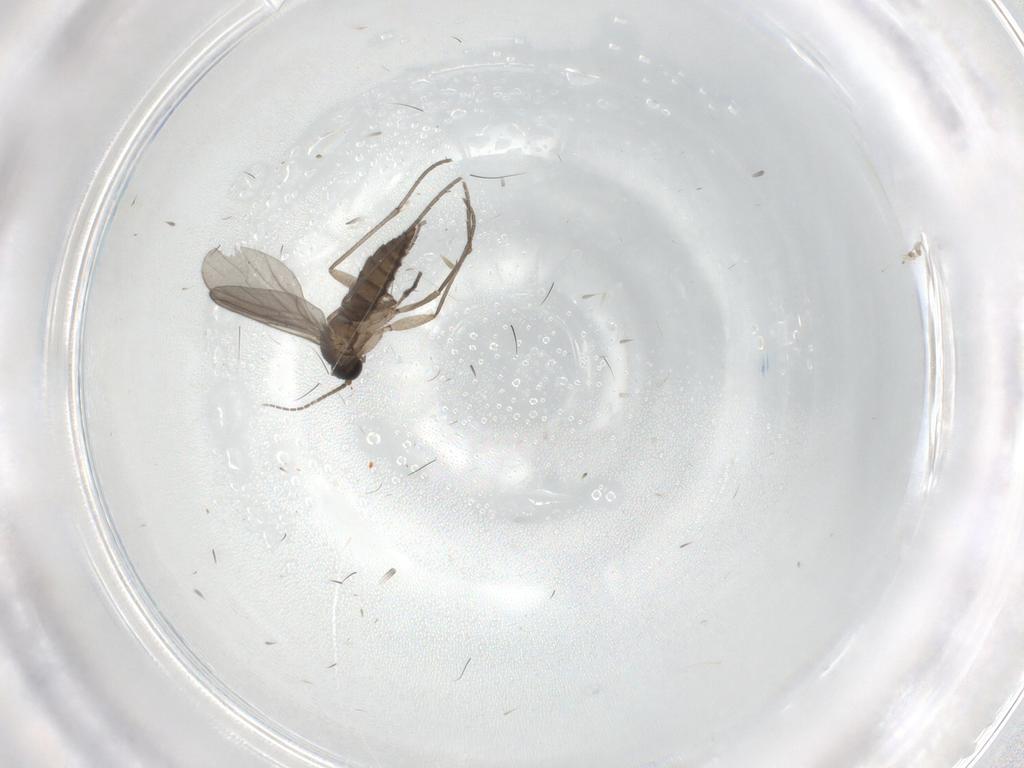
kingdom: Animalia
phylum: Arthropoda
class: Insecta
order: Diptera
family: Sciaridae
